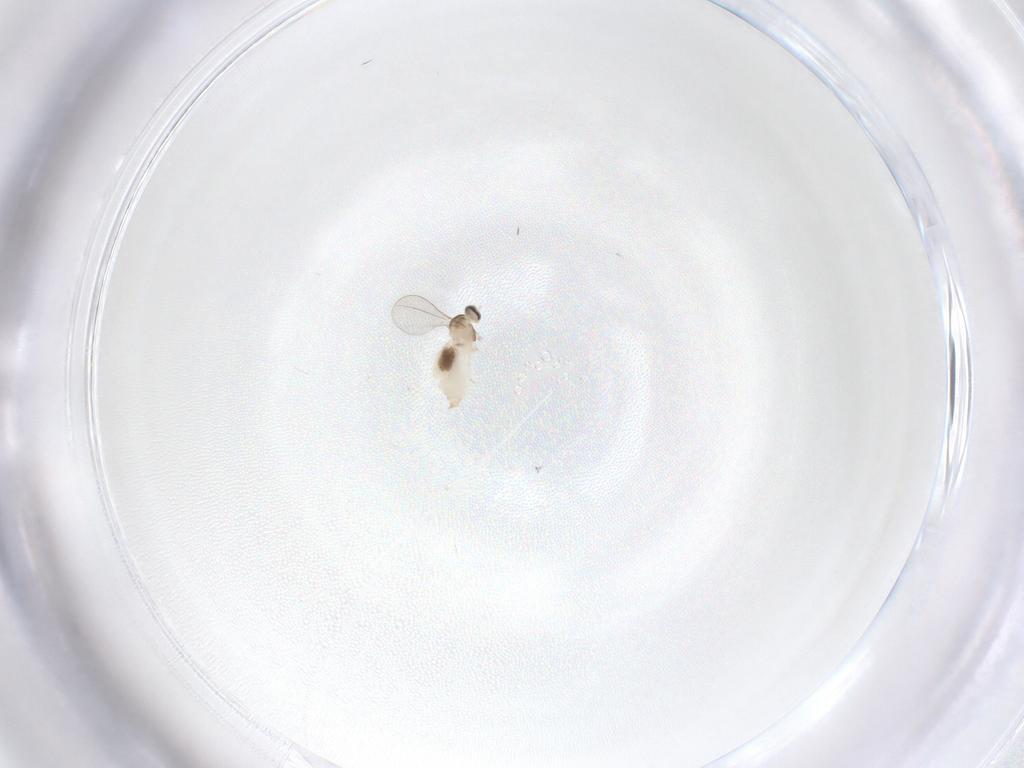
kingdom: Animalia
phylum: Arthropoda
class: Insecta
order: Diptera
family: Cecidomyiidae
